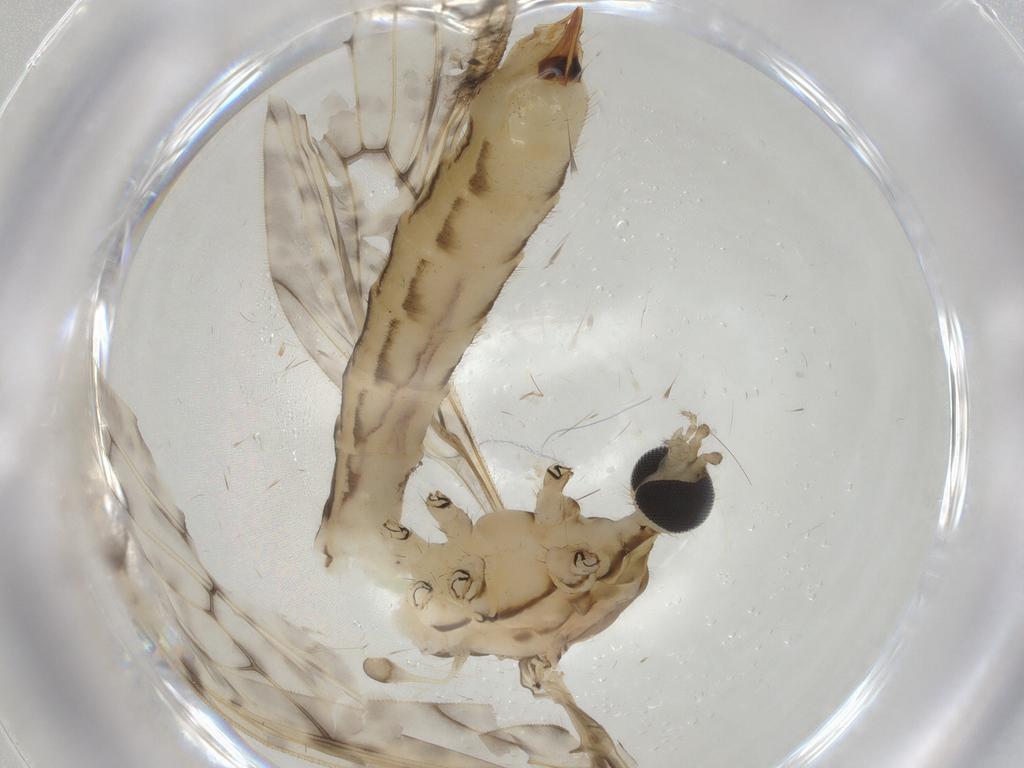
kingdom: Animalia
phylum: Arthropoda
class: Insecta
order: Diptera
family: Limoniidae
